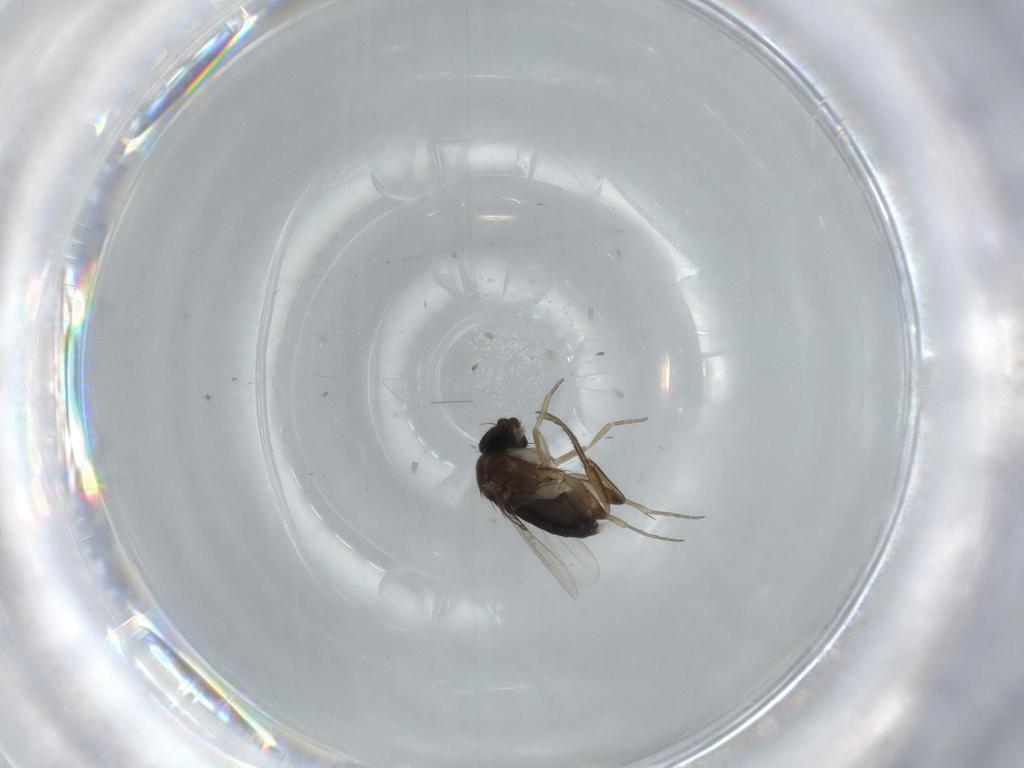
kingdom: Animalia
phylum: Arthropoda
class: Insecta
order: Diptera
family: Phoridae
